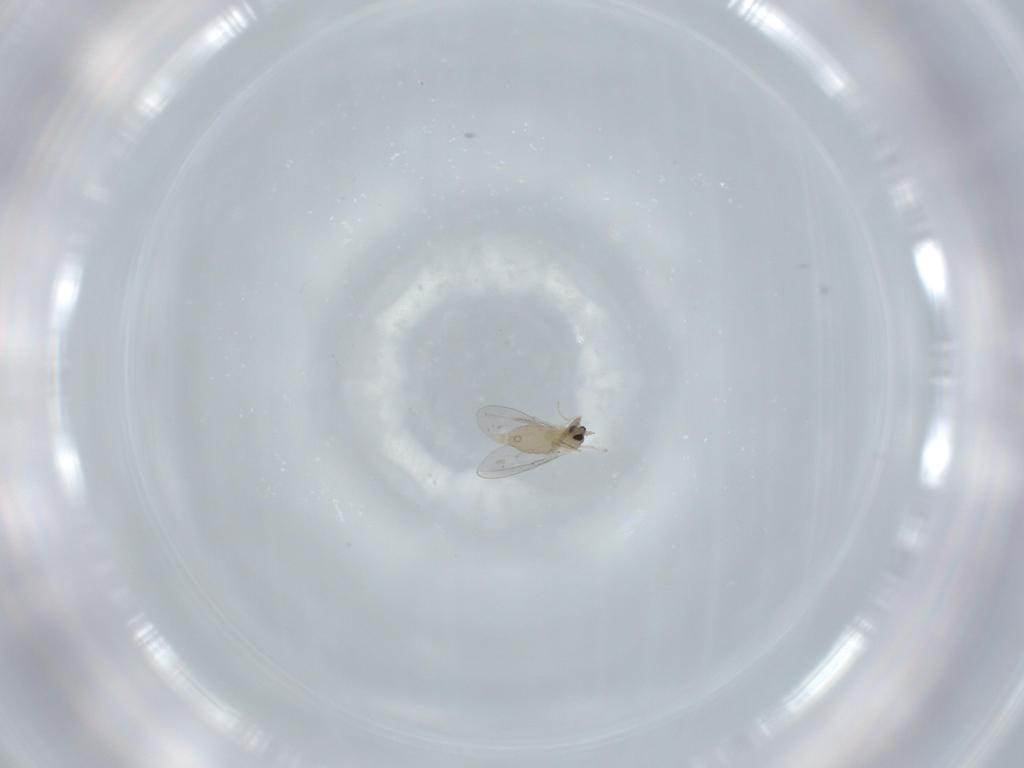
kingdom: Animalia
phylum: Arthropoda
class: Insecta
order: Diptera
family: Cecidomyiidae
